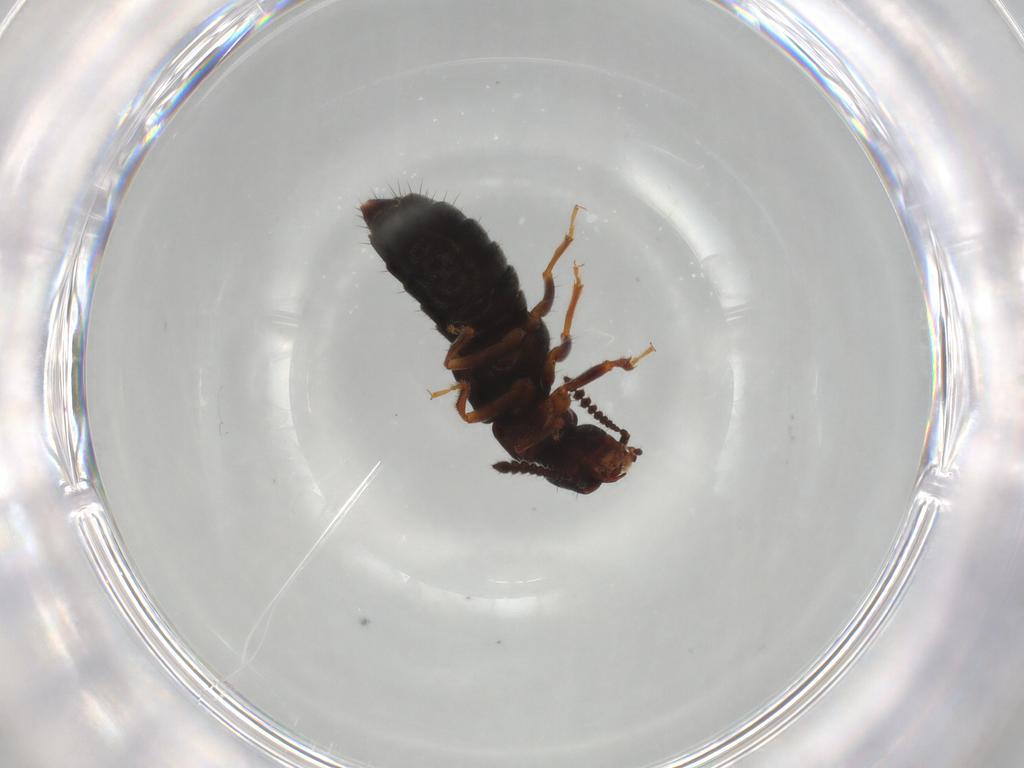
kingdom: Animalia
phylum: Arthropoda
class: Insecta
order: Coleoptera
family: Staphylinidae
